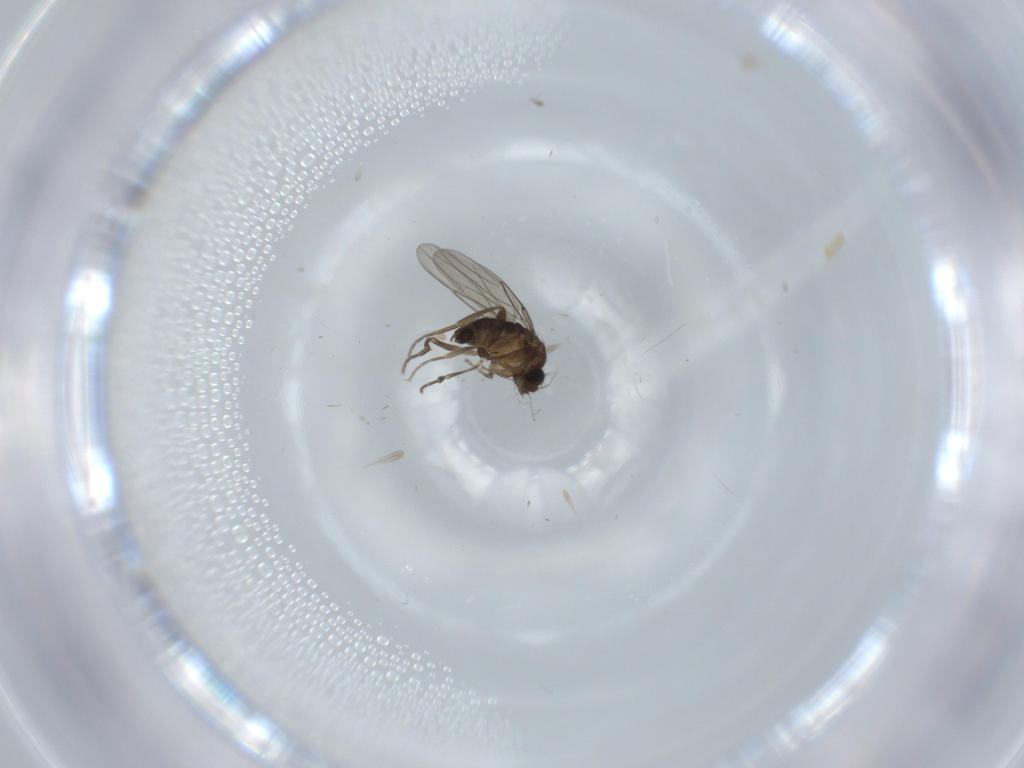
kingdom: Animalia
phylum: Arthropoda
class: Insecta
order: Diptera
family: Phoridae
